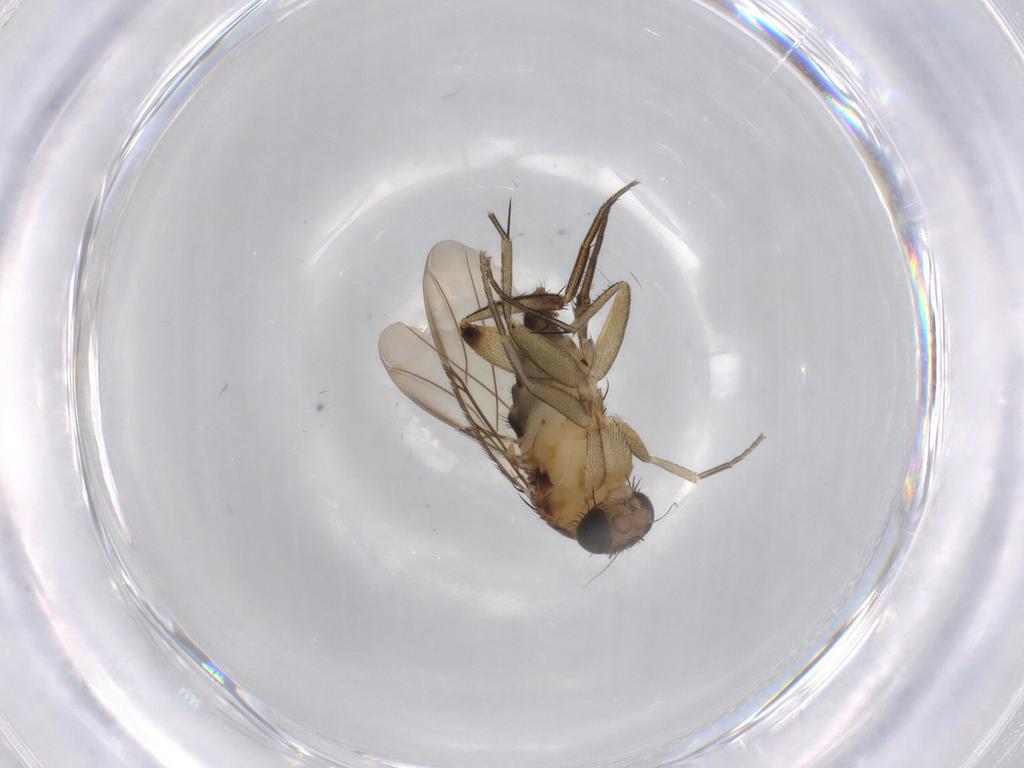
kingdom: Animalia
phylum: Arthropoda
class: Insecta
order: Diptera
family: Phoridae
